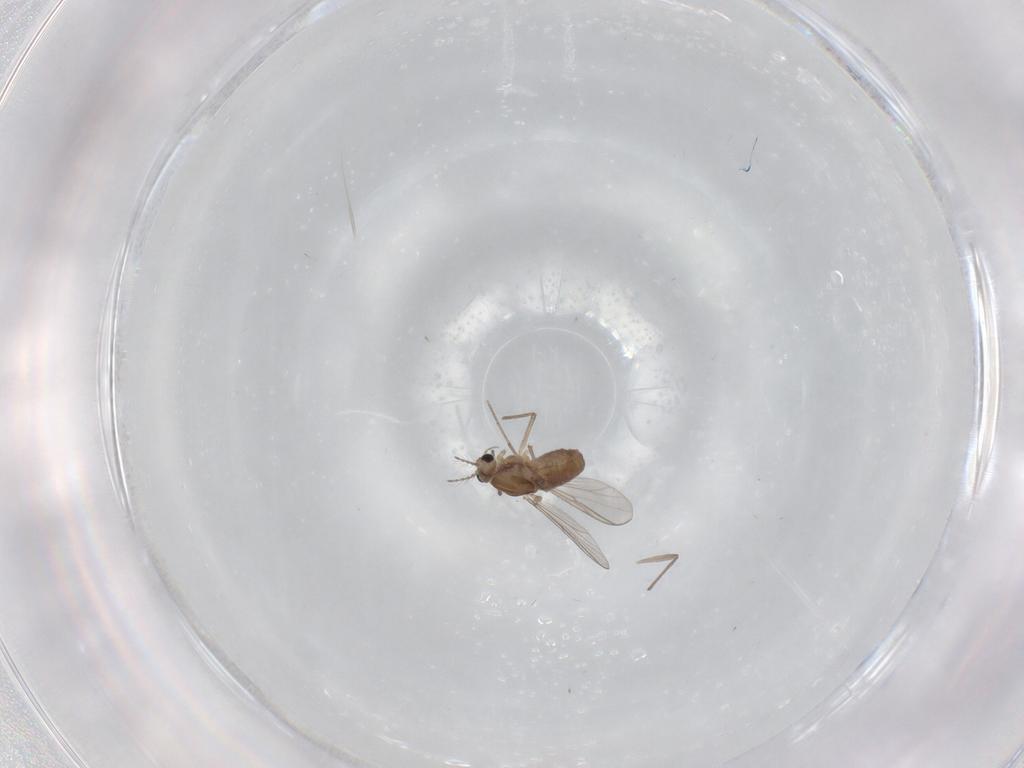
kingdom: Animalia
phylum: Arthropoda
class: Insecta
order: Diptera
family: Chironomidae
